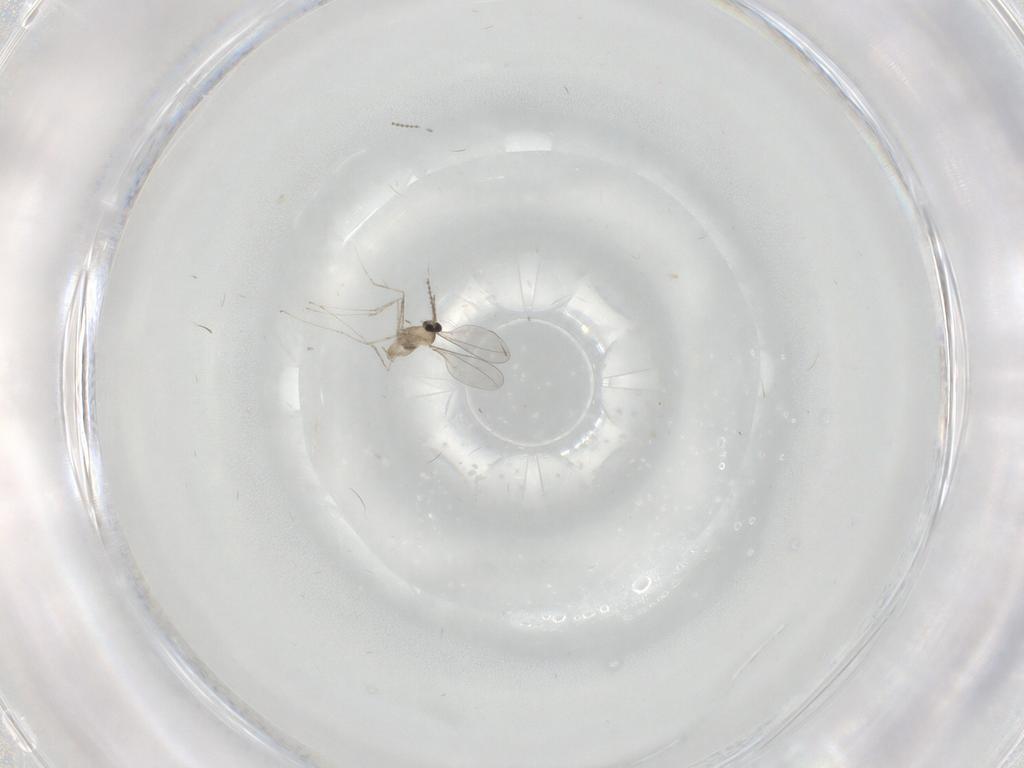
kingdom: Animalia
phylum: Arthropoda
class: Insecta
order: Diptera
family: Cecidomyiidae
